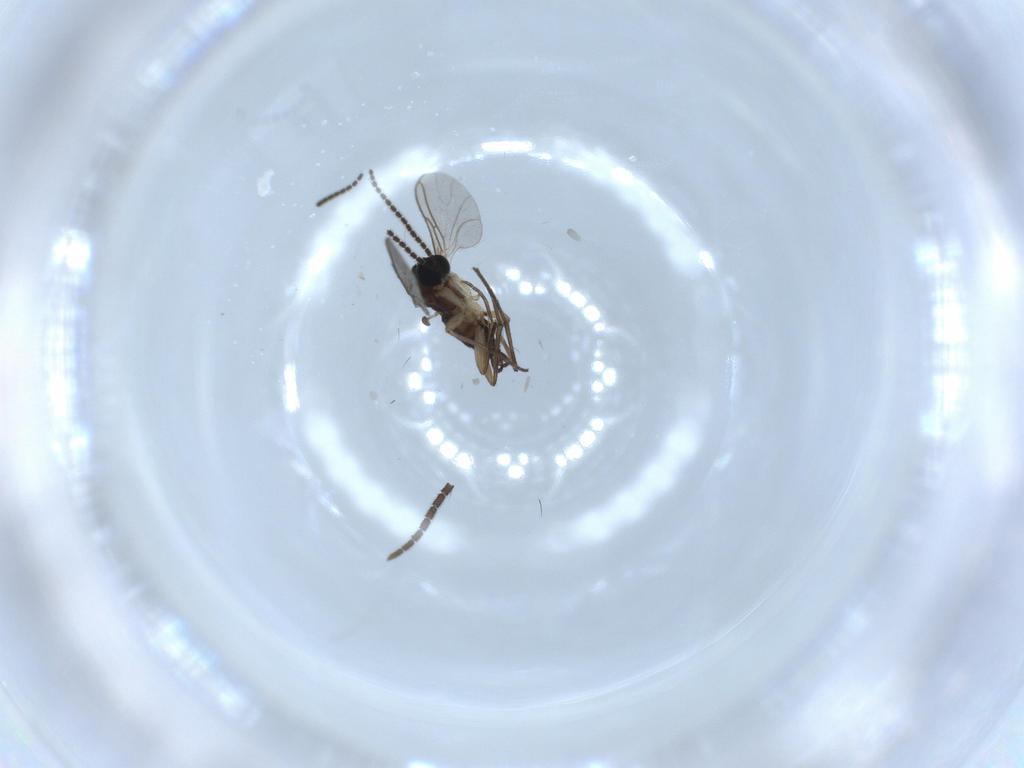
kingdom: Animalia
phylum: Arthropoda
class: Insecta
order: Diptera
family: Sciaridae
